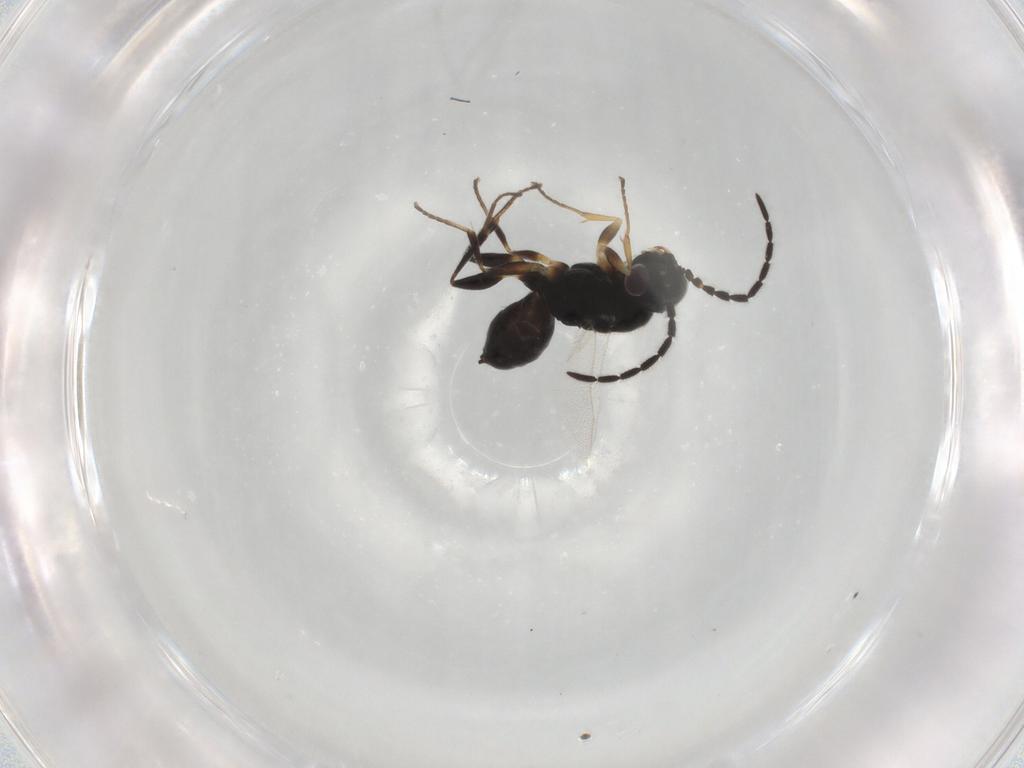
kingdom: Animalia
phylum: Arthropoda
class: Insecta
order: Hymenoptera
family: Dryinidae
